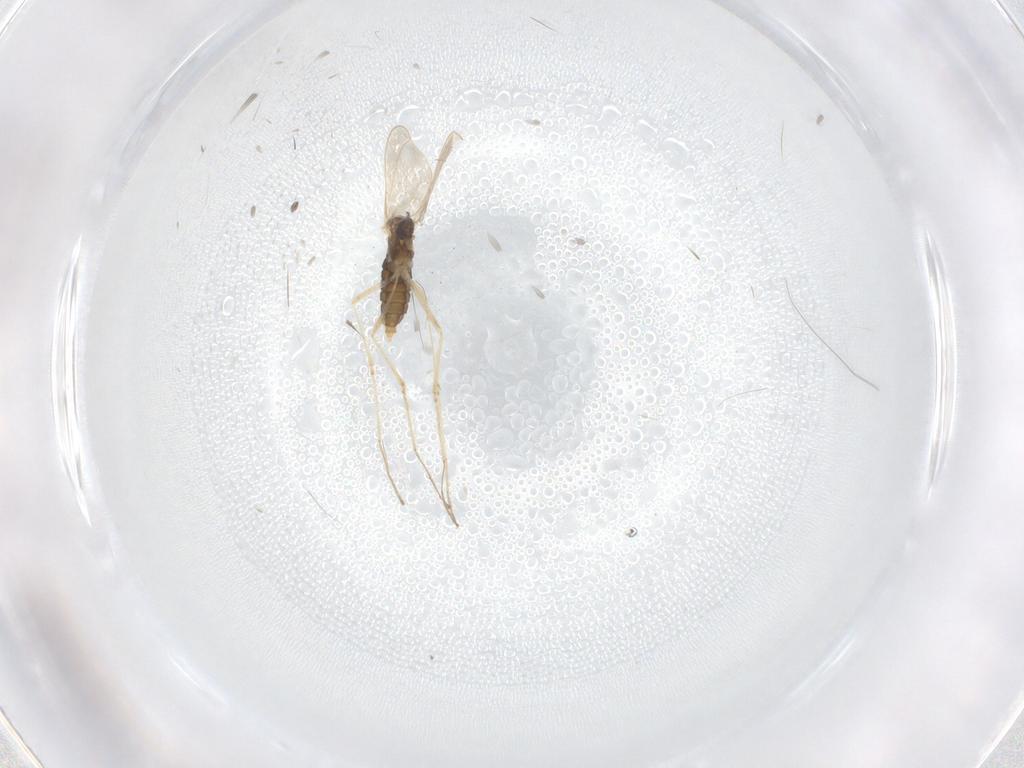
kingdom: Animalia
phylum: Arthropoda
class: Insecta
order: Diptera
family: Cecidomyiidae
